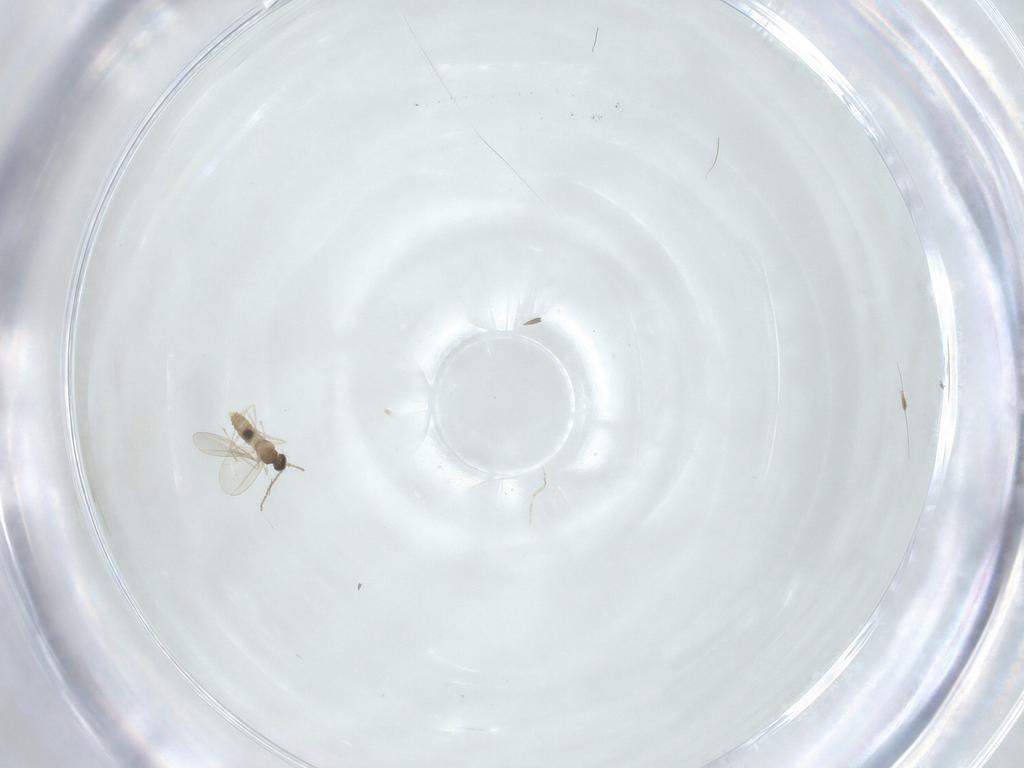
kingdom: Animalia
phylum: Arthropoda
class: Insecta
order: Diptera
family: Cecidomyiidae
